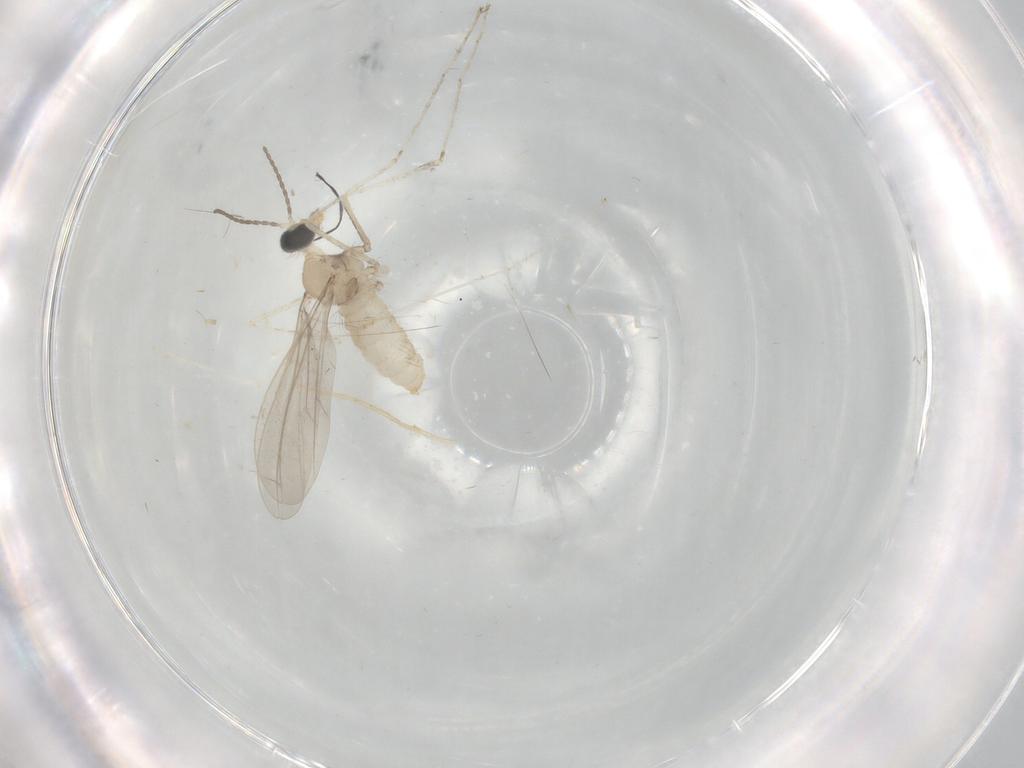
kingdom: Animalia
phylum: Arthropoda
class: Insecta
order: Diptera
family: Cecidomyiidae
